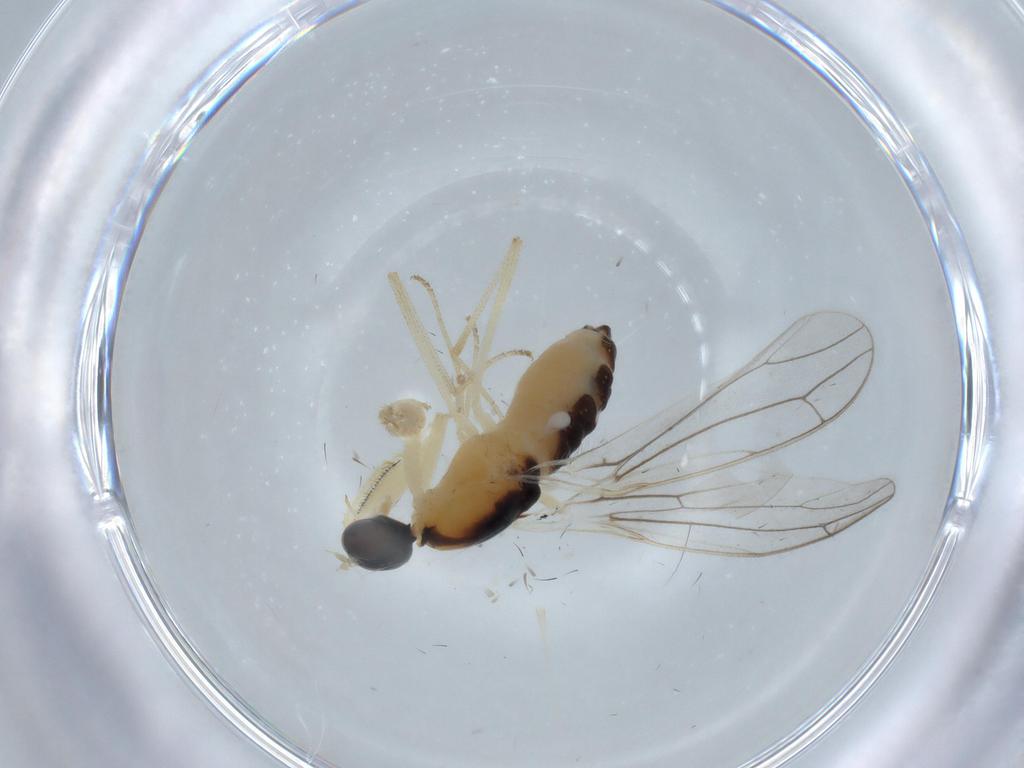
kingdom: Animalia
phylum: Arthropoda
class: Insecta
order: Diptera
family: Empididae
